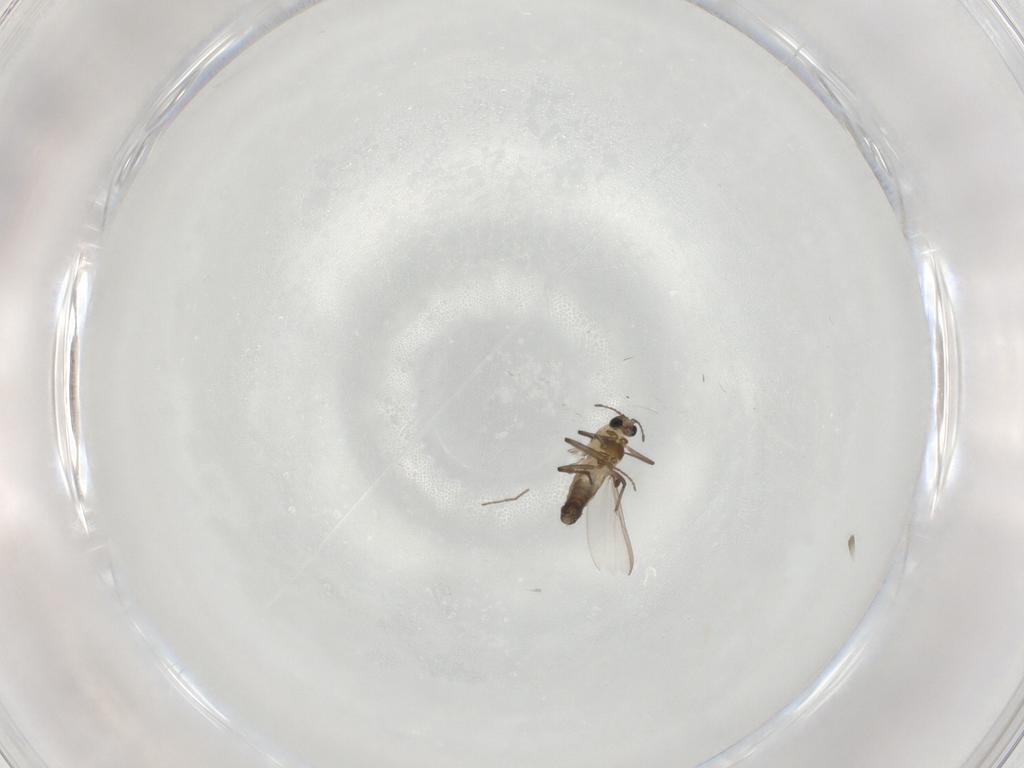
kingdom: Animalia
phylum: Arthropoda
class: Insecta
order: Diptera
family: Chironomidae
